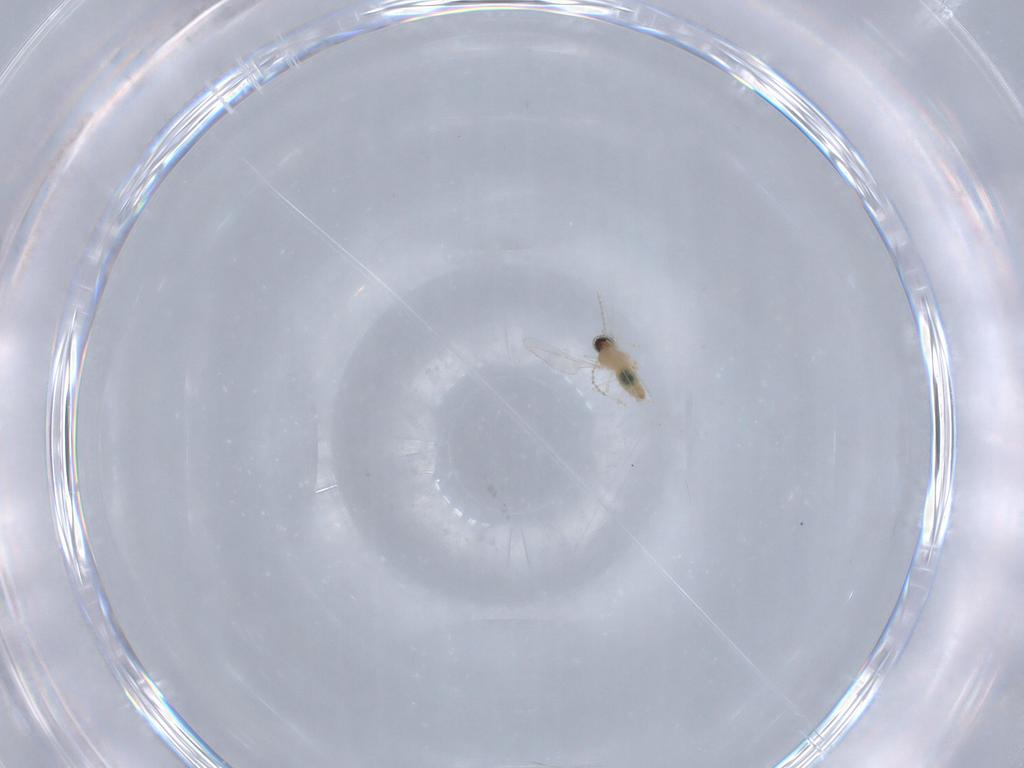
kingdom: Animalia
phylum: Arthropoda
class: Insecta
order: Diptera
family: Cecidomyiidae
